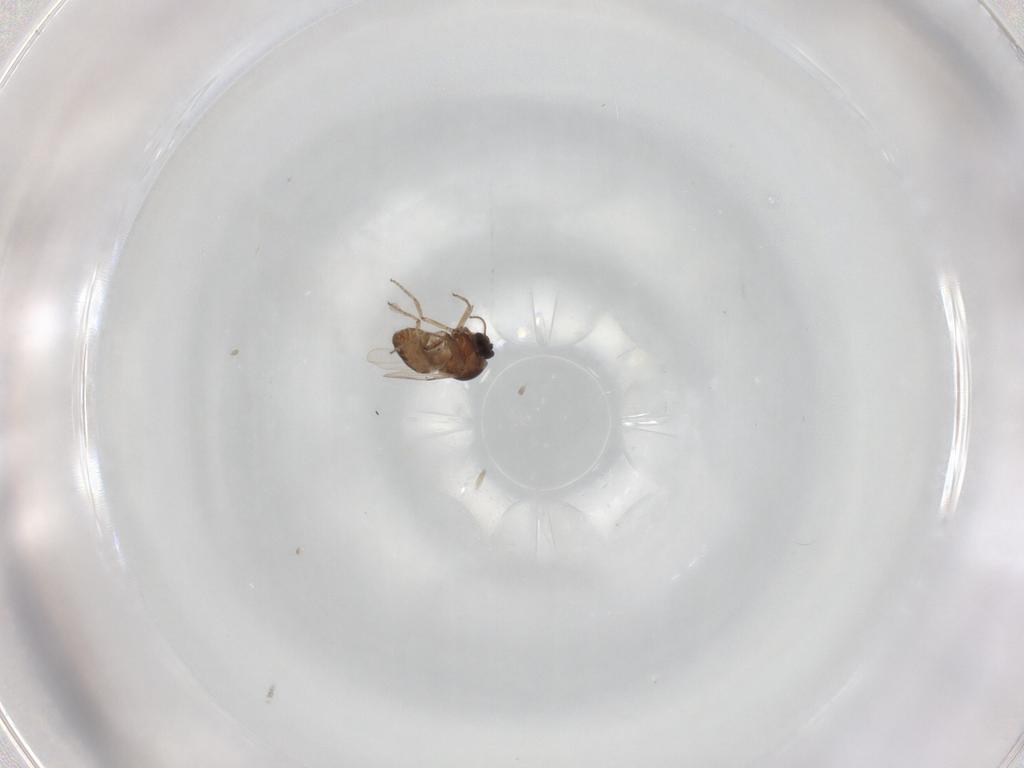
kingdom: Animalia
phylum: Arthropoda
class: Insecta
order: Diptera
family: Ceratopogonidae
